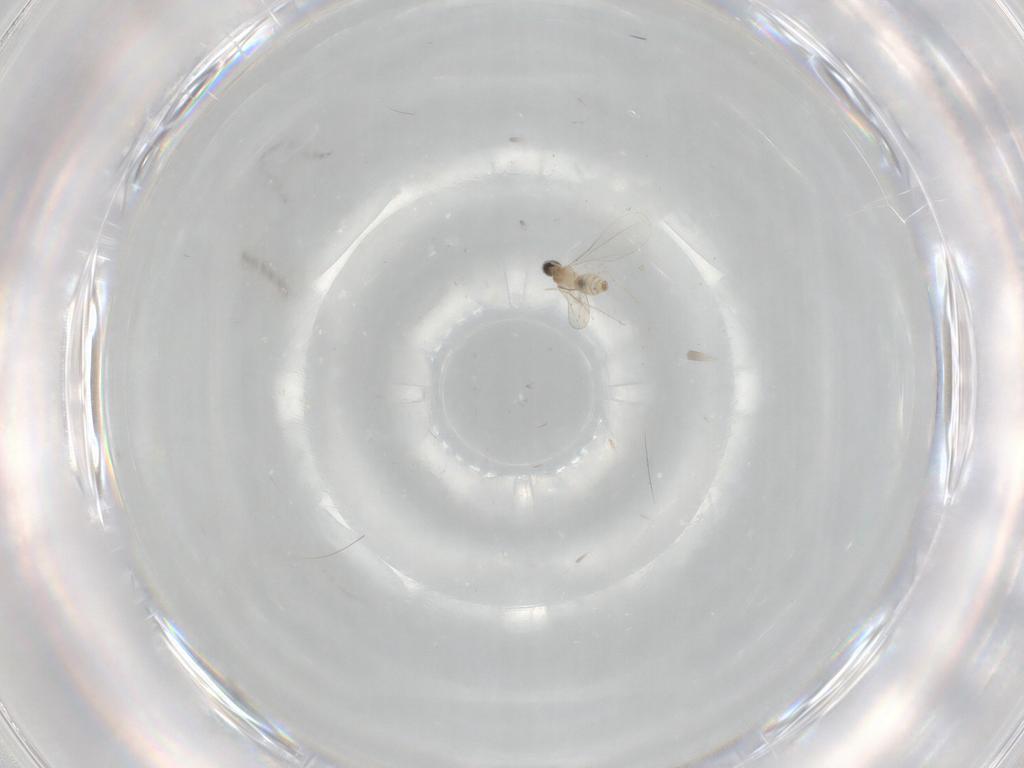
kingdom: Animalia
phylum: Arthropoda
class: Insecta
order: Diptera
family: Cecidomyiidae
